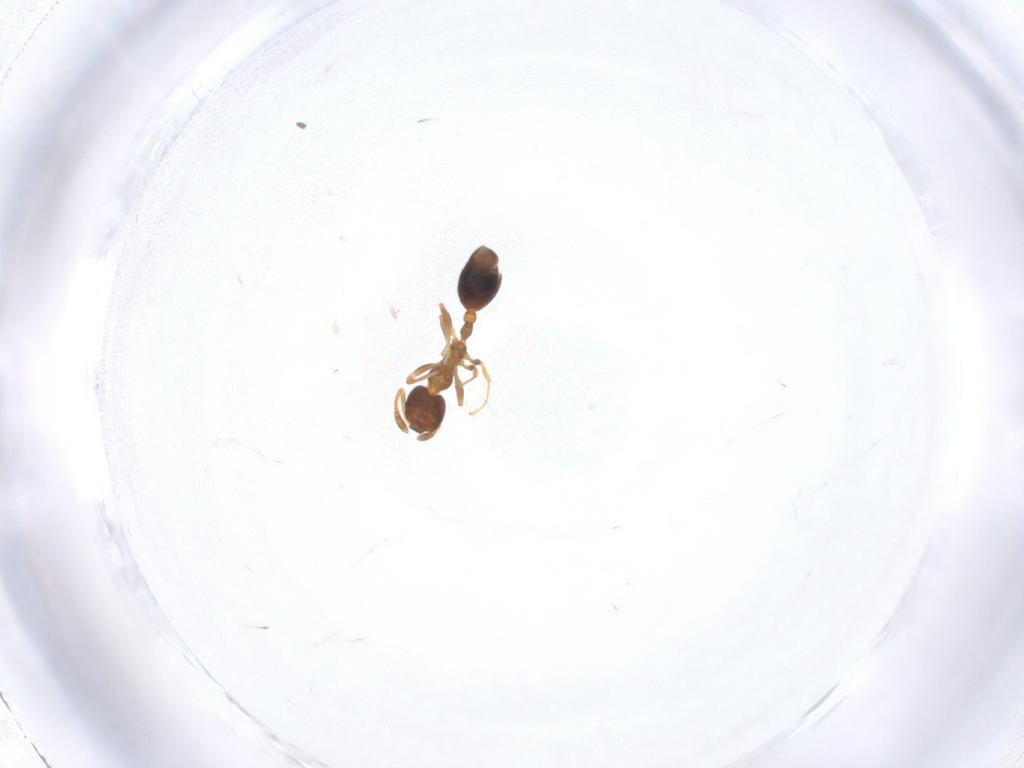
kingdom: Animalia
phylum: Arthropoda
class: Insecta
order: Hymenoptera
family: Formicidae
